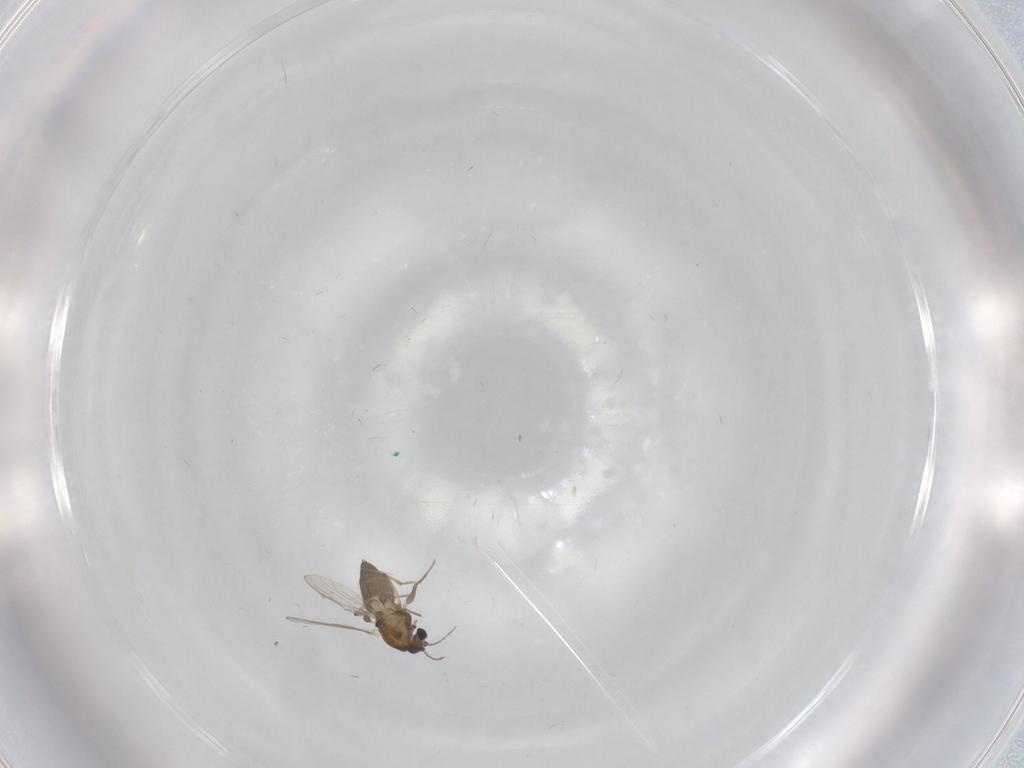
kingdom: Animalia
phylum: Arthropoda
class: Insecta
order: Diptera
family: Chironomidae
